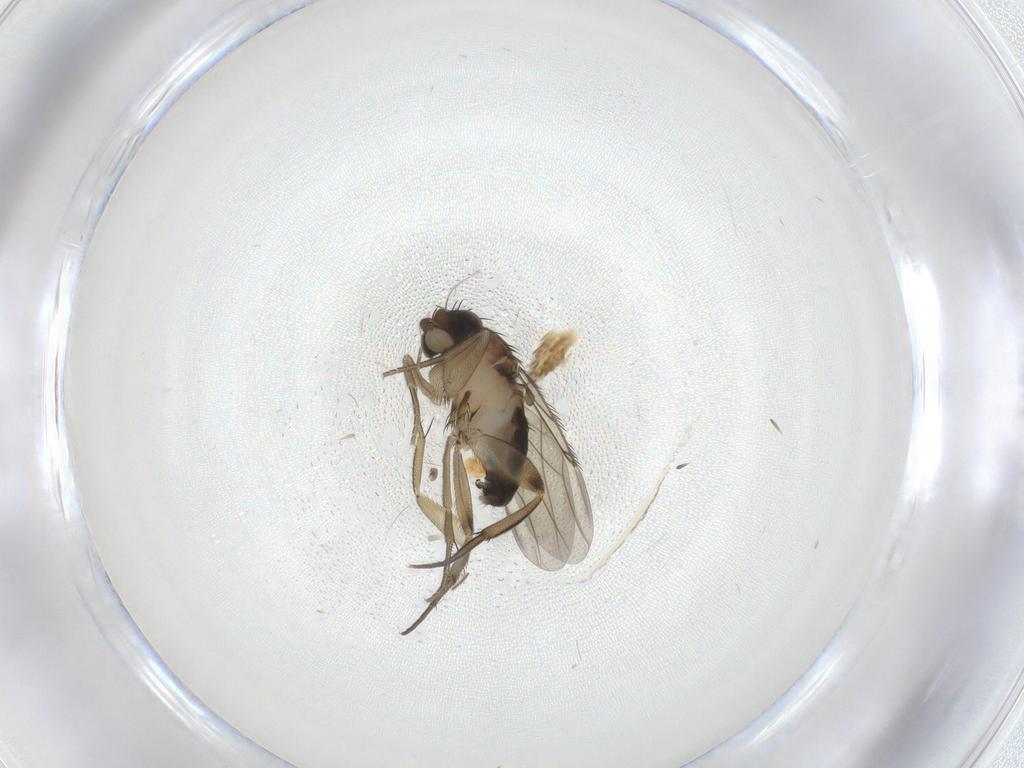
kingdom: Animalia
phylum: Arthropoda
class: Insecta
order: Diptera
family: Phoridae
